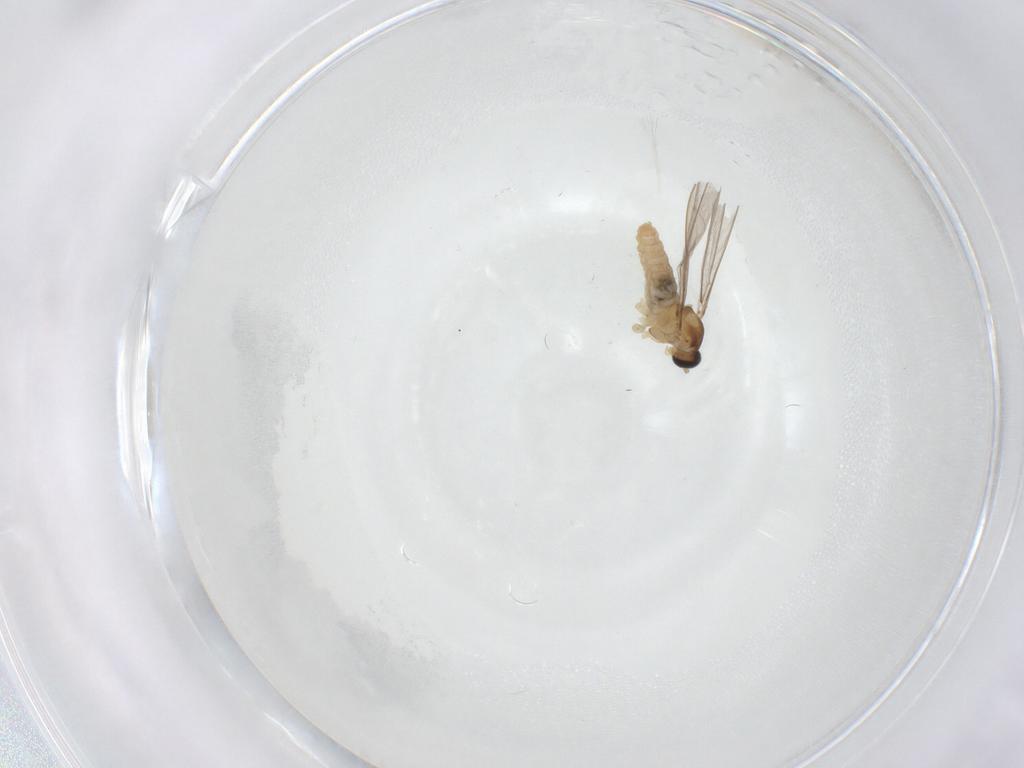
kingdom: Animalia
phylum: Arthropoda
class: Insecta
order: Diptera
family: Cecidomyiidae
